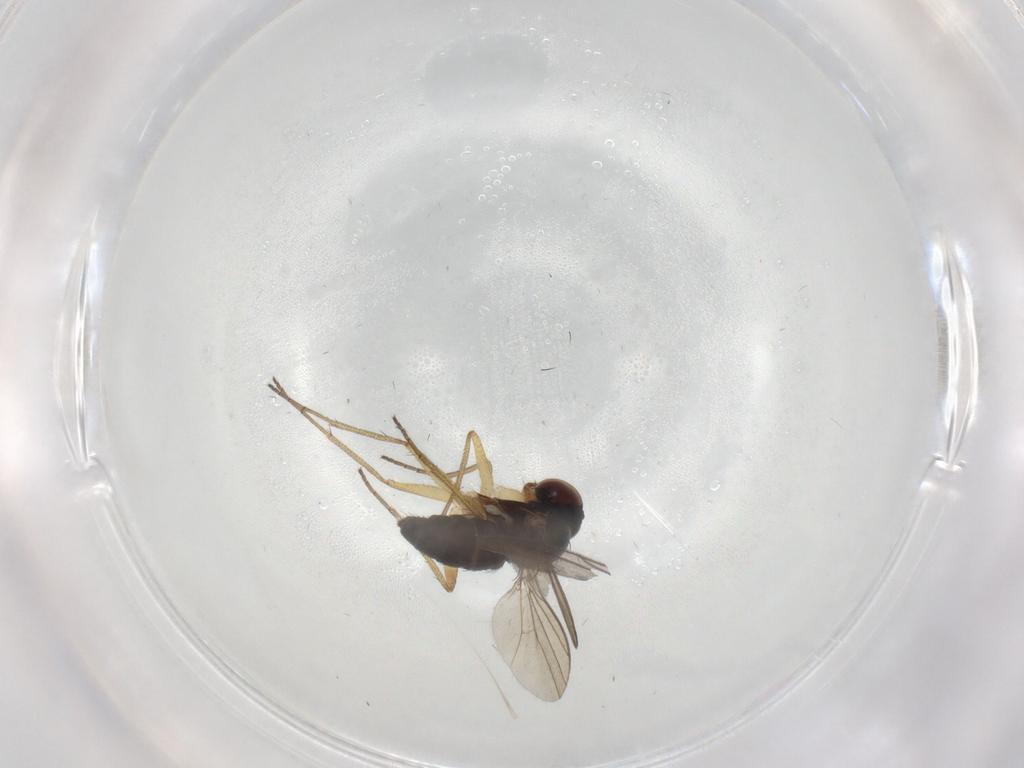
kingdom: Animalia
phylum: Arthropoda
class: Insecta
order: Diptera
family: Dolichopodidae
